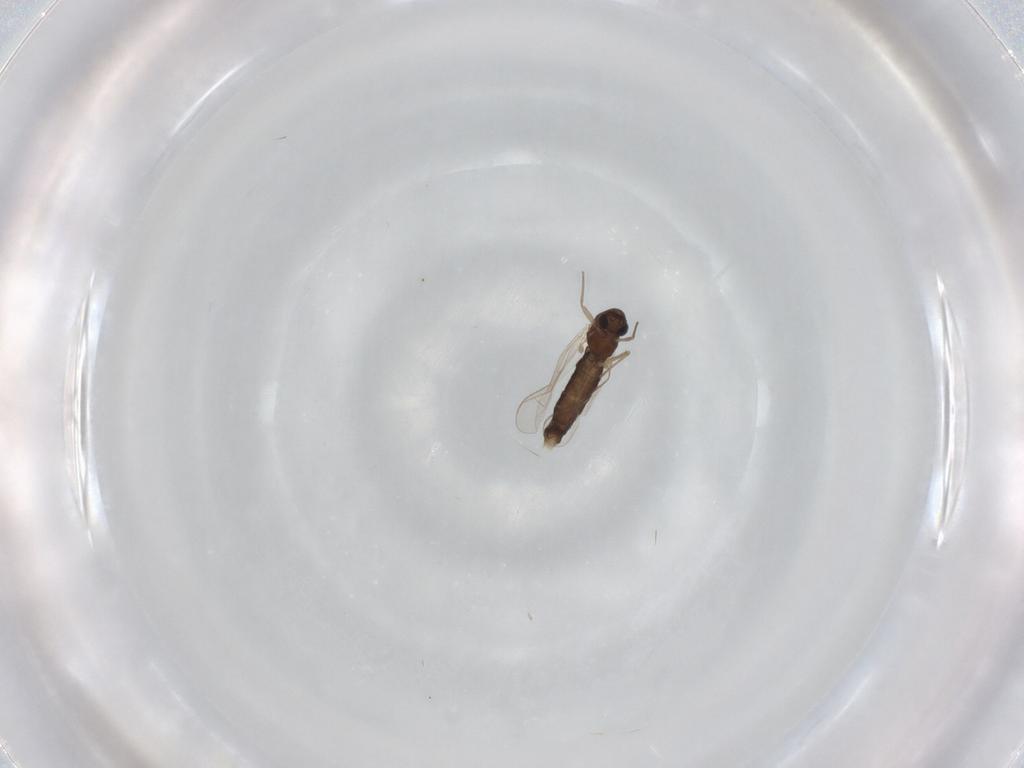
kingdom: Animalia
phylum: Arthropoda
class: Insecta
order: Diptera
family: Chironomidae
